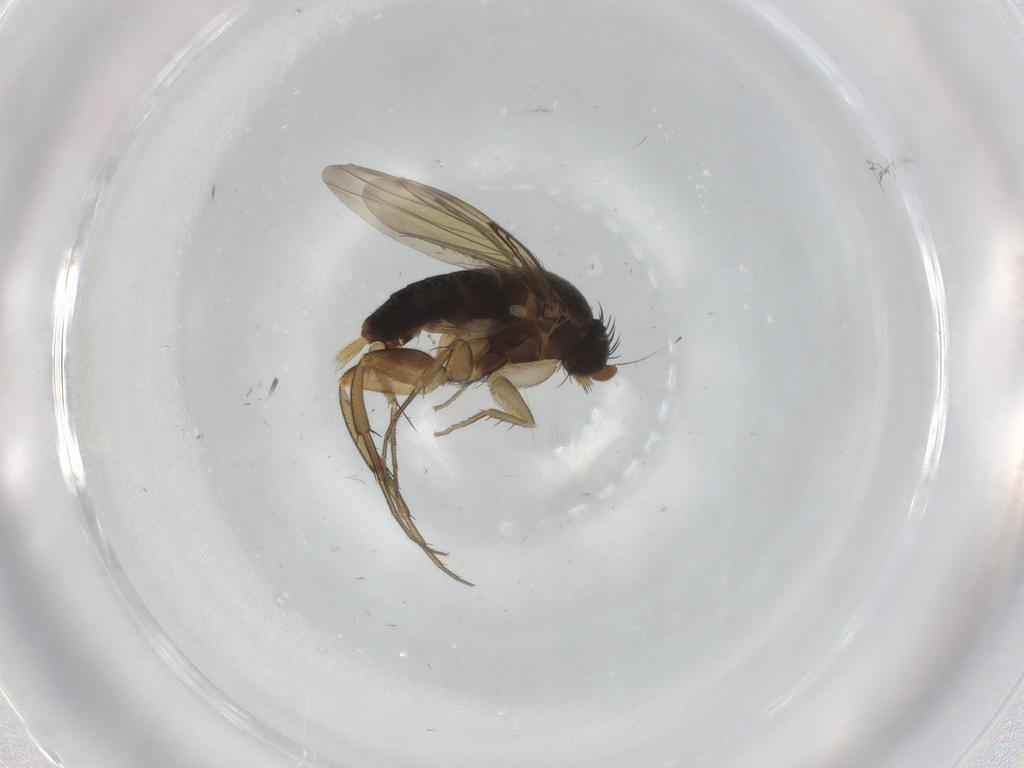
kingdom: Animalia
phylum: Arthropoda
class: Insecta
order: Diptera
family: Phoridae
